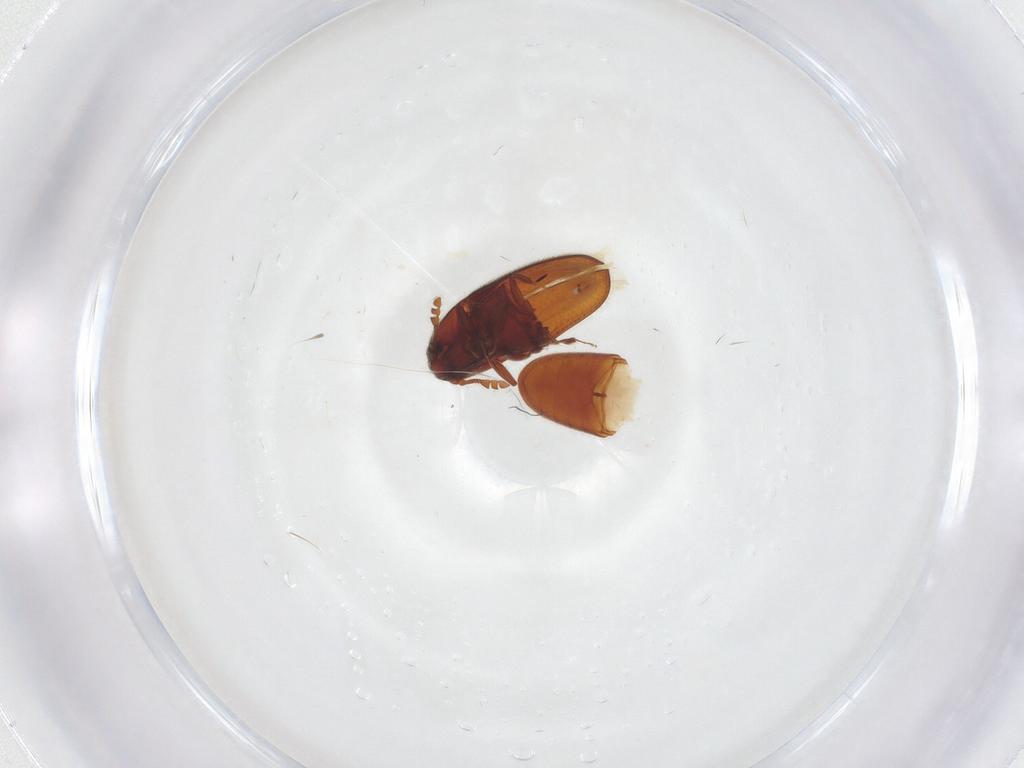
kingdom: Animalia
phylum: Arthropoda
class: Insecta
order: Coleoptera
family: Throscidae
